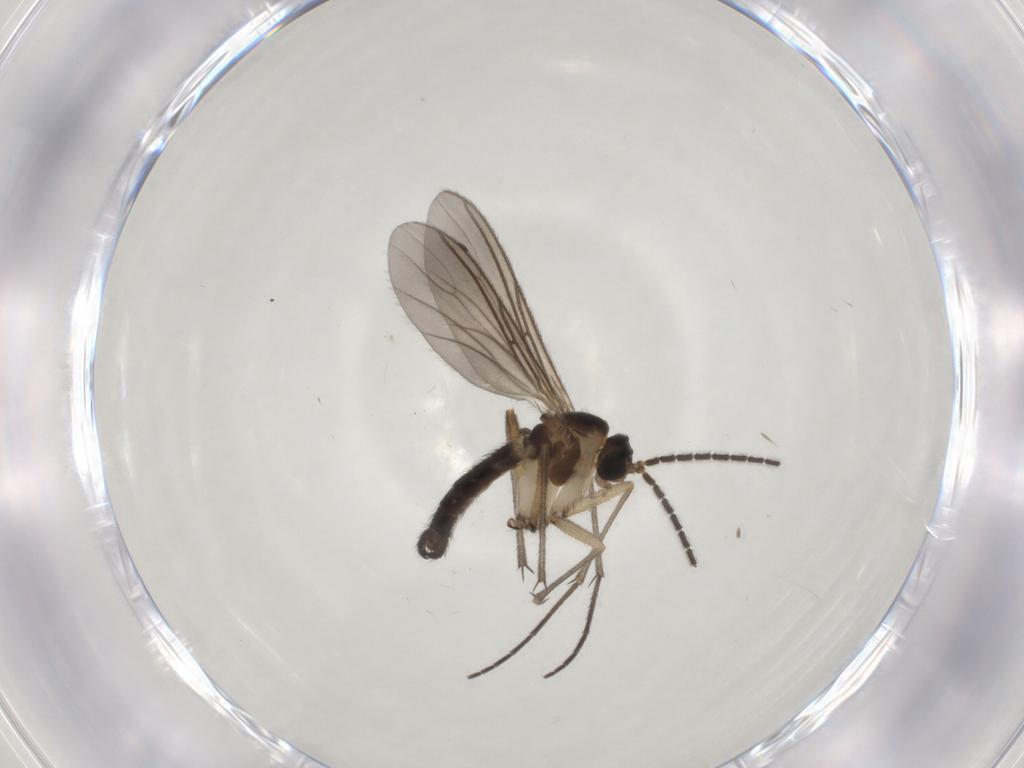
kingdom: Animalia
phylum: Arthropoda
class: Insecta
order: Diptera
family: Sciaridae
